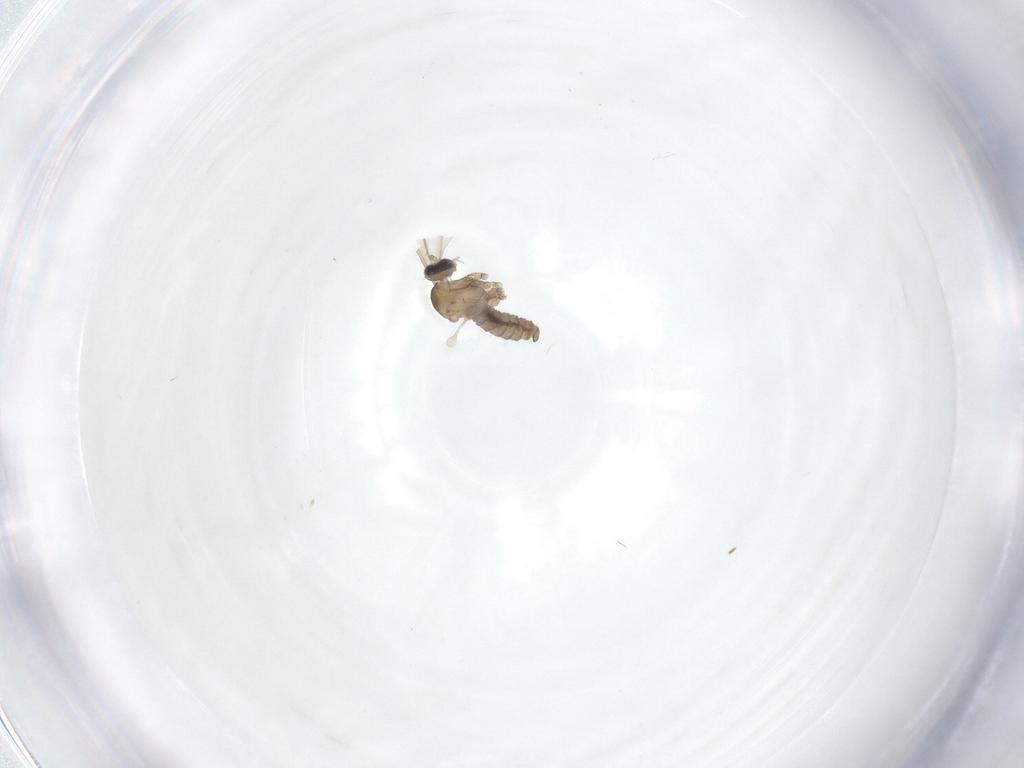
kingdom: Animalia
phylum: Arthropoda
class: Insecta
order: Diptera
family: Cecidomyiidae
